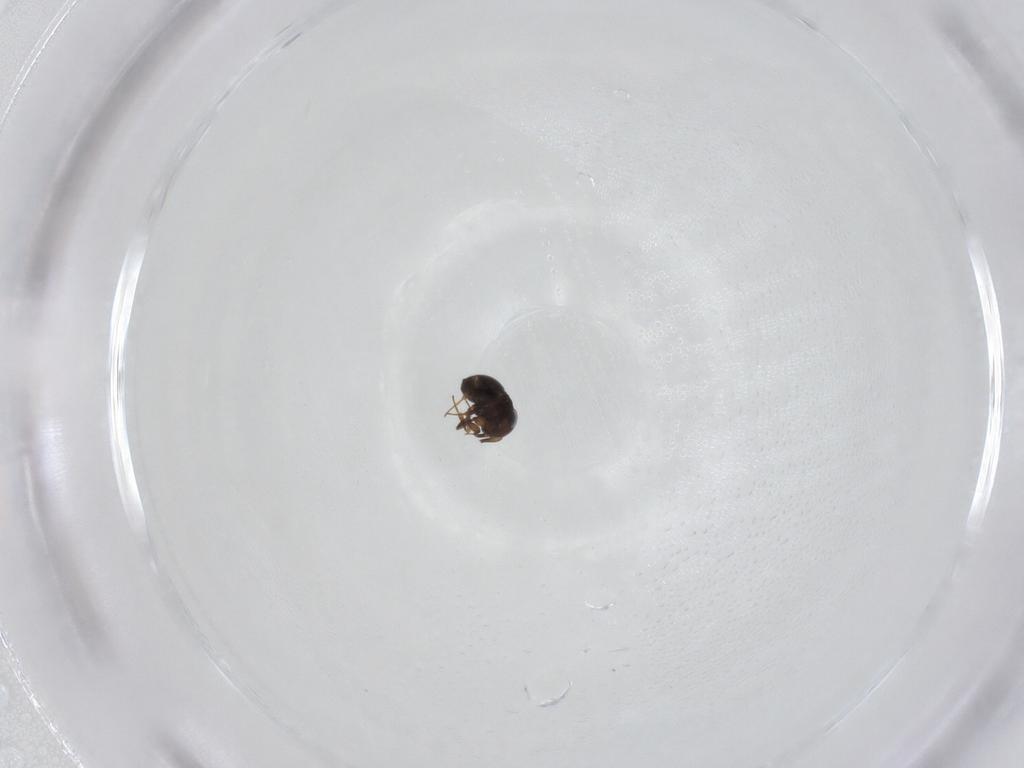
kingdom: Animalia
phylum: Arthropoda
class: Insecta
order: Hymenoptera
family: Scelionidae
